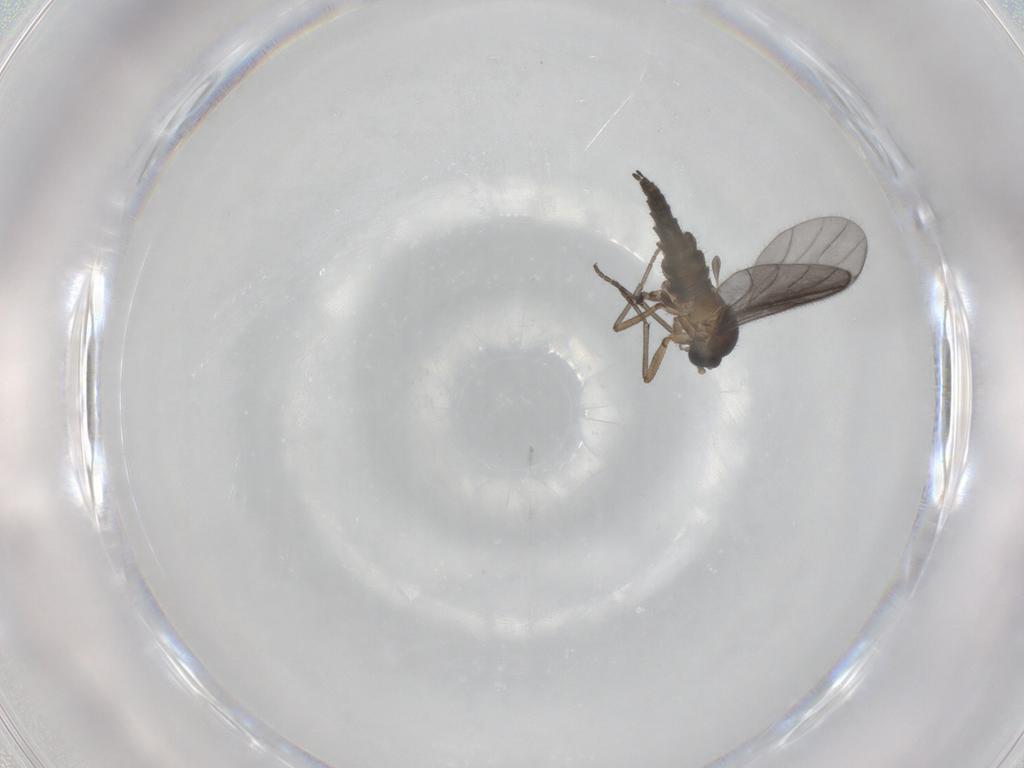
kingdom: Animalia
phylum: Arthropoda
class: Insecta
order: Diptera
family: Sciaridae
